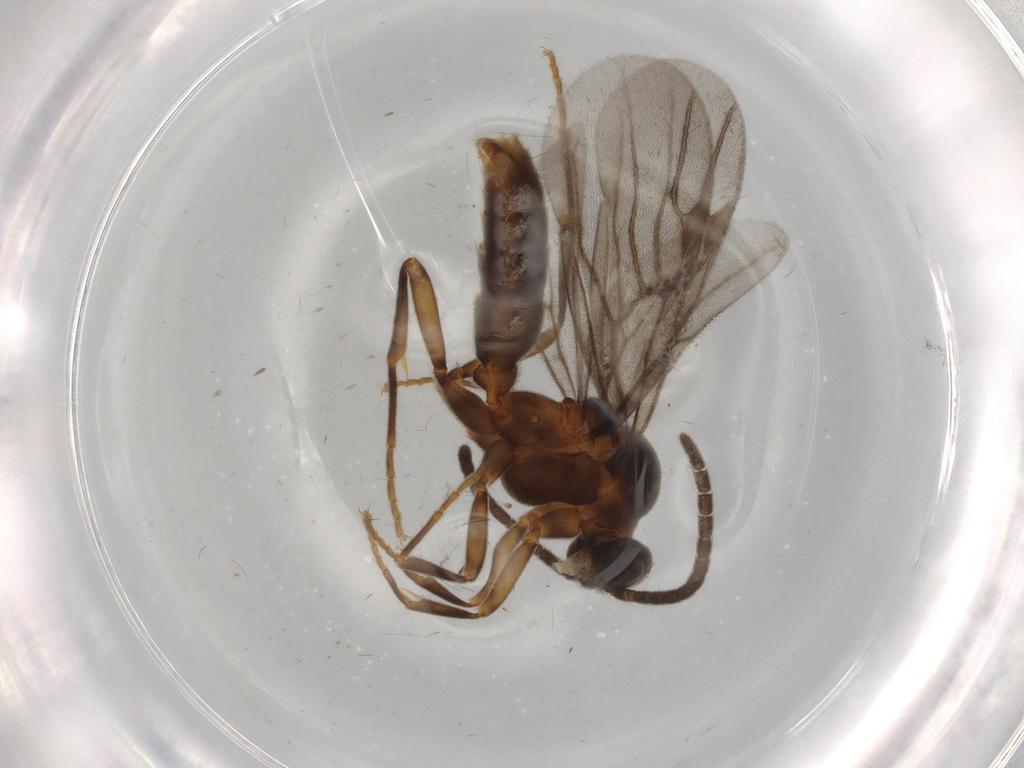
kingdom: Animalia
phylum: Arthropoda
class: Insecta
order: Hymenoptera
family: Formicidae
